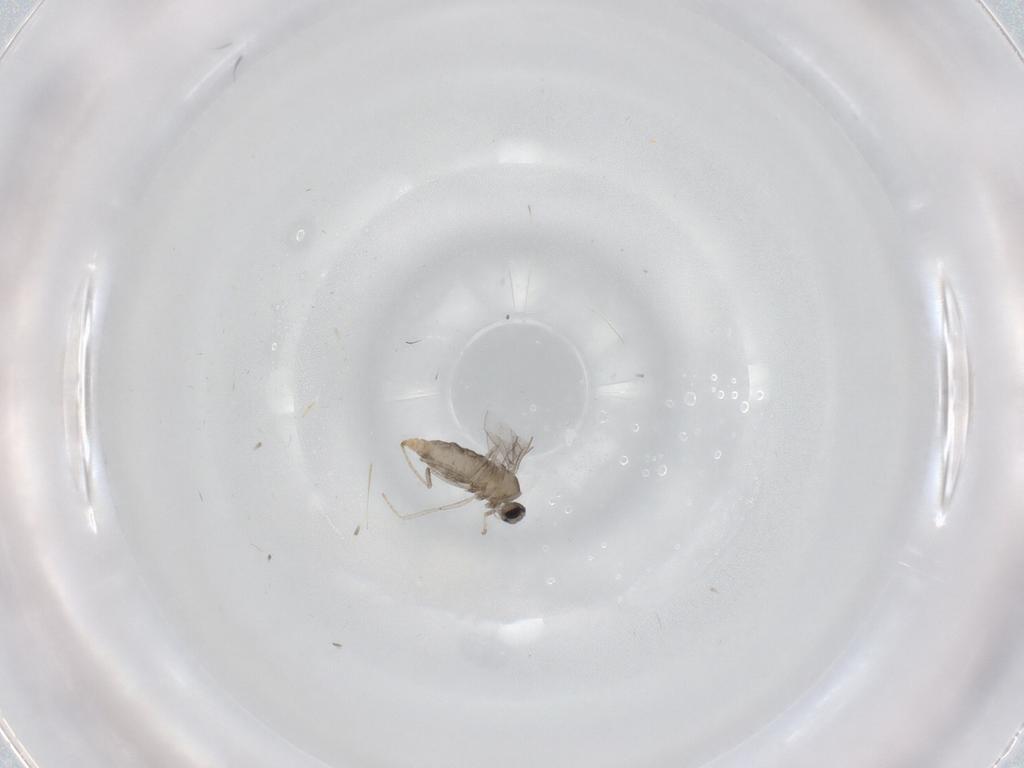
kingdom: Animalia
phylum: Arthropoda
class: Insecta
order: Diptera
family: Cecidomyiidae
